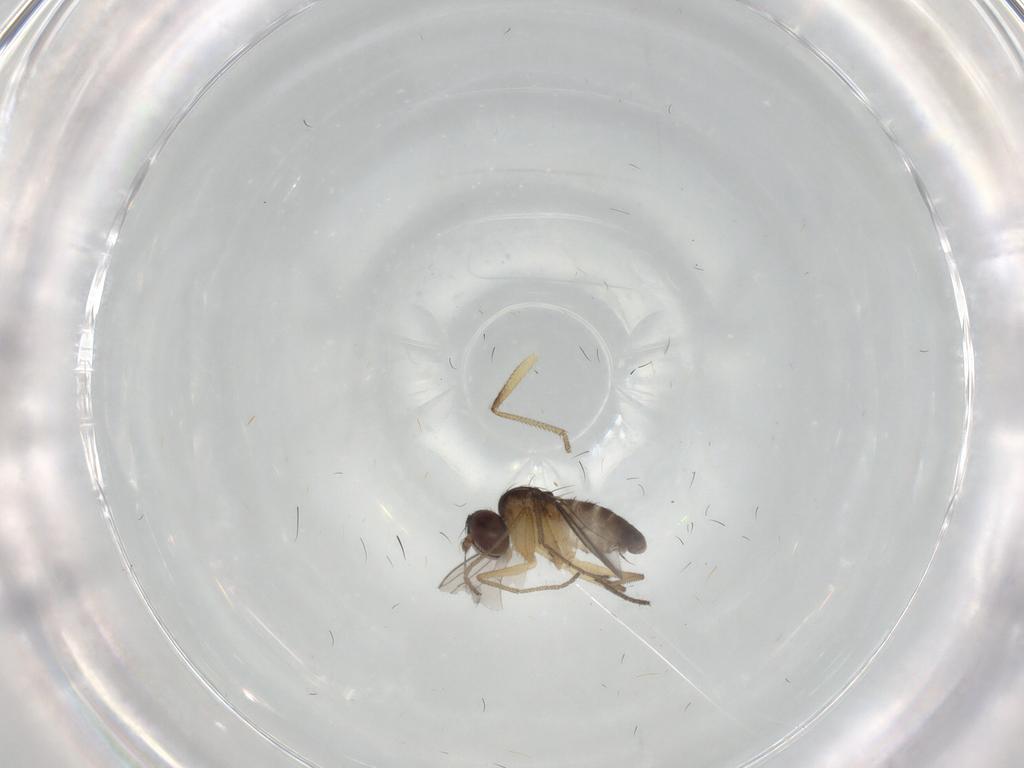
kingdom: Animalia
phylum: Arthropoda
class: Insecta
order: Diptera
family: Dolichopodidae
